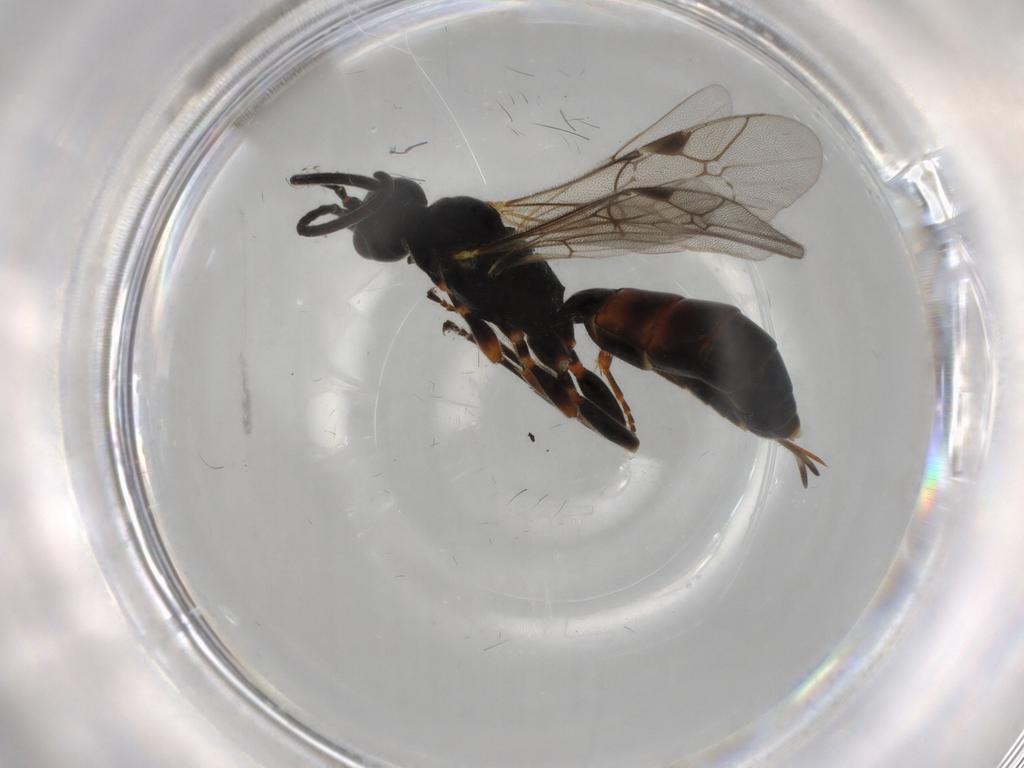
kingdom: Animalia
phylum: Arthropoda
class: Insecta
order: Hymenoptera
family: Ichneumonidae
